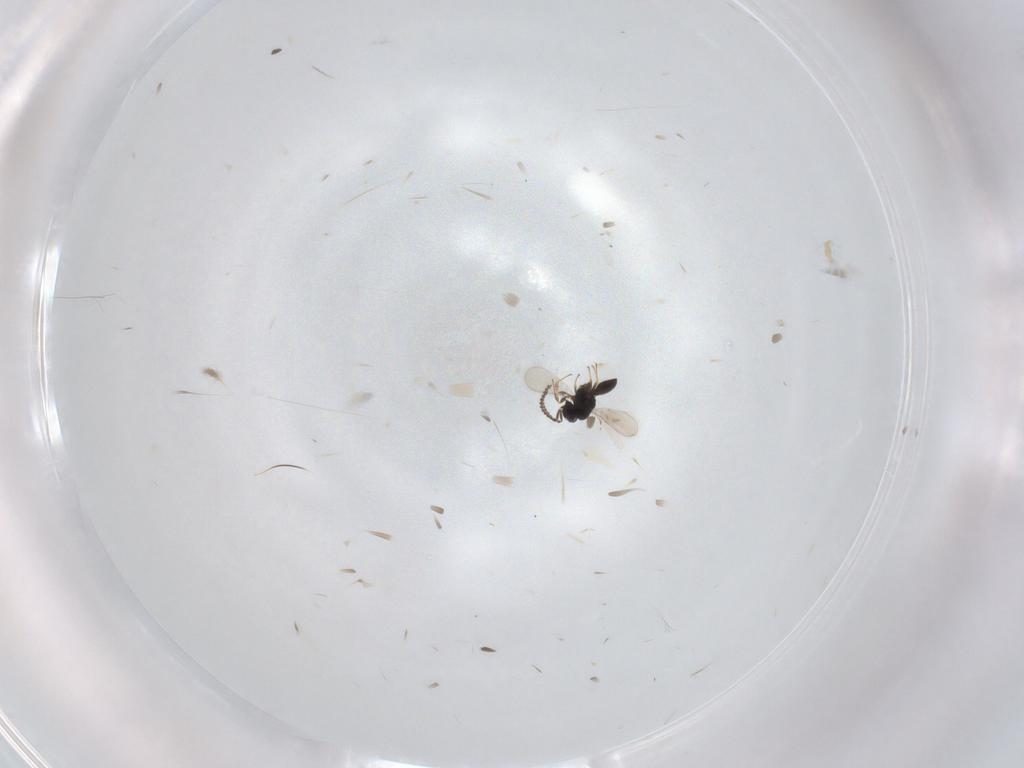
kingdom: Animalia
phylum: Arthropoda
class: Insecta
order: Hymenoptera
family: Scelionidae
